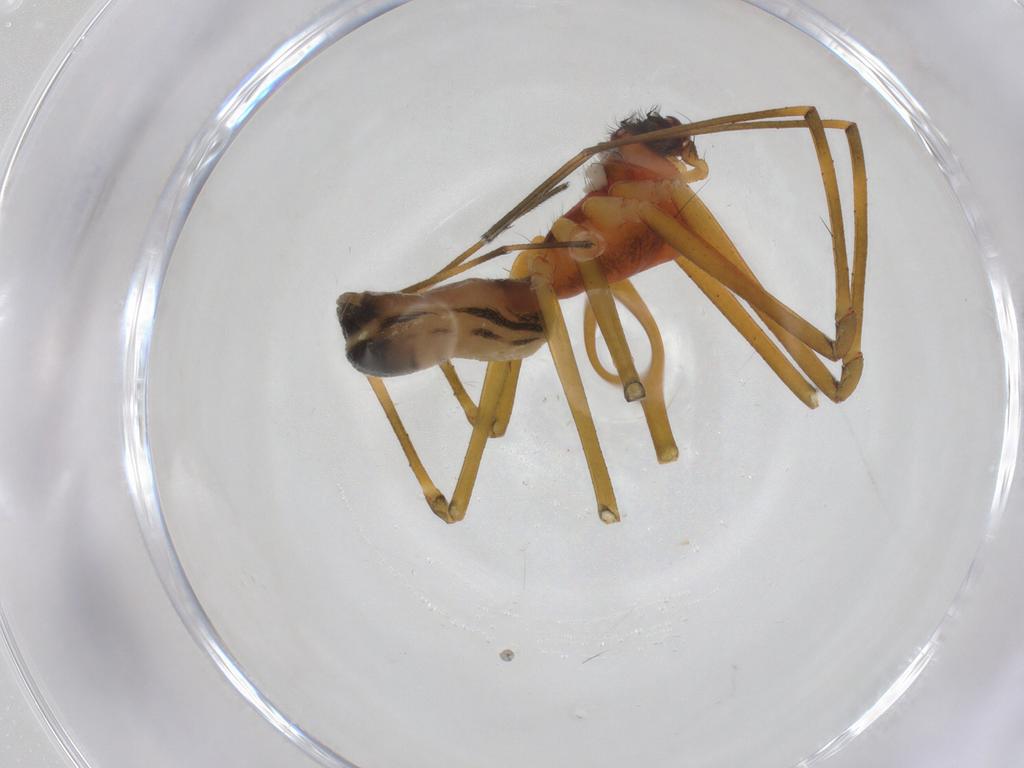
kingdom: Animalia
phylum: Arthropoda
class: Arachnida
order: Araneae
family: Linyphiidae
